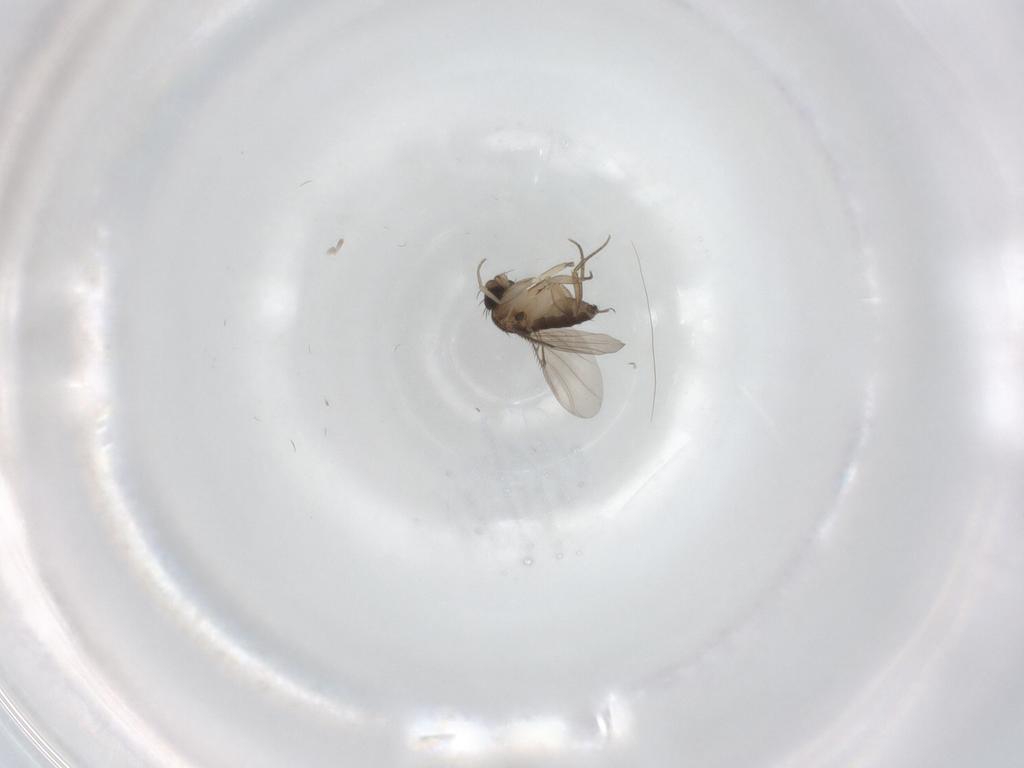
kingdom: Animalia
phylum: Arthropoda
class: Insecta
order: Diptera
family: Phoridae
